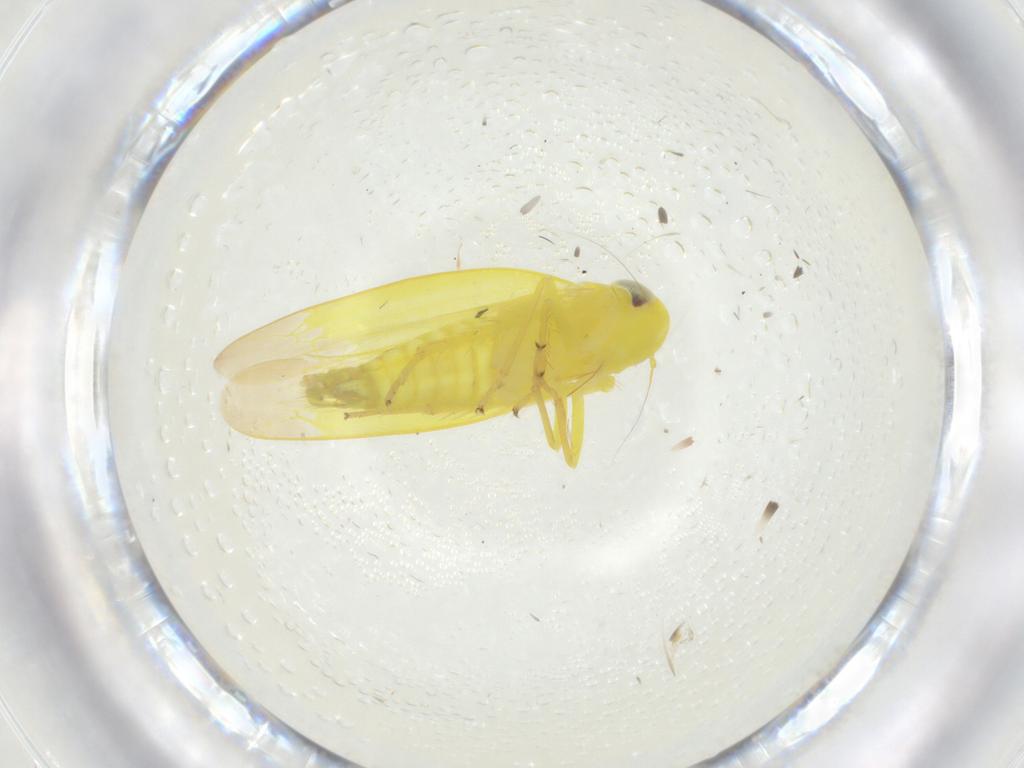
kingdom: Animalia
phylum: Arthropoda
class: Insecta
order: Hemiptera
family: Cicadellidae
